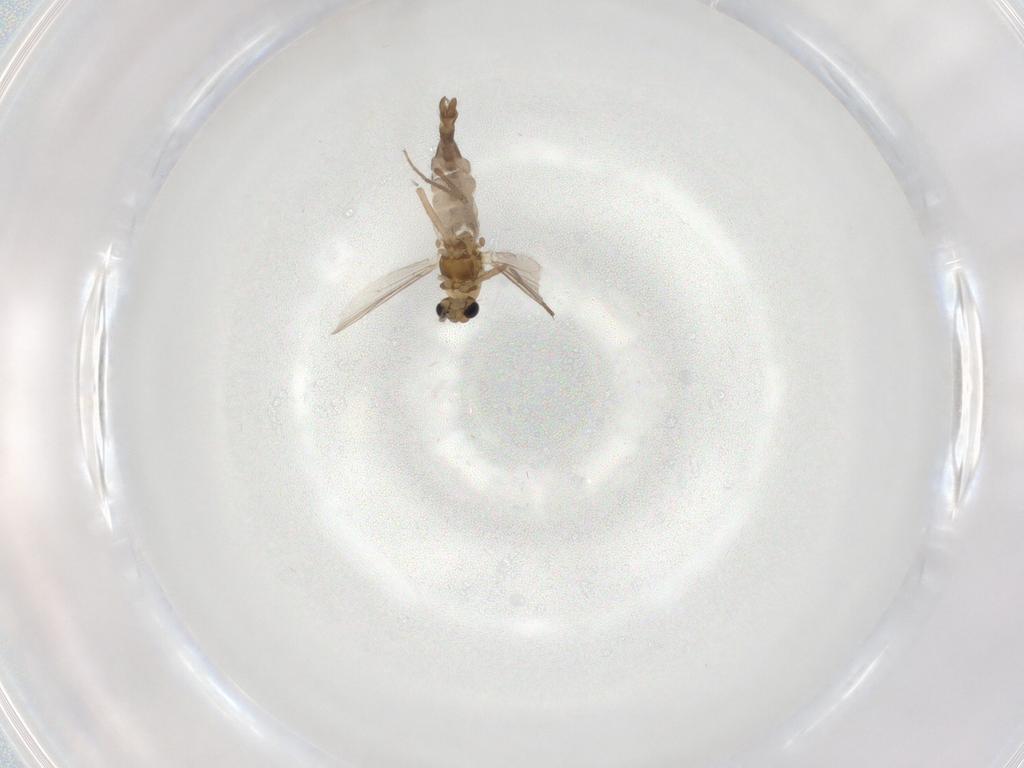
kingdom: Animalia
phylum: Arthropoda
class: Insecta
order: Diptera
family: Chironomidae
